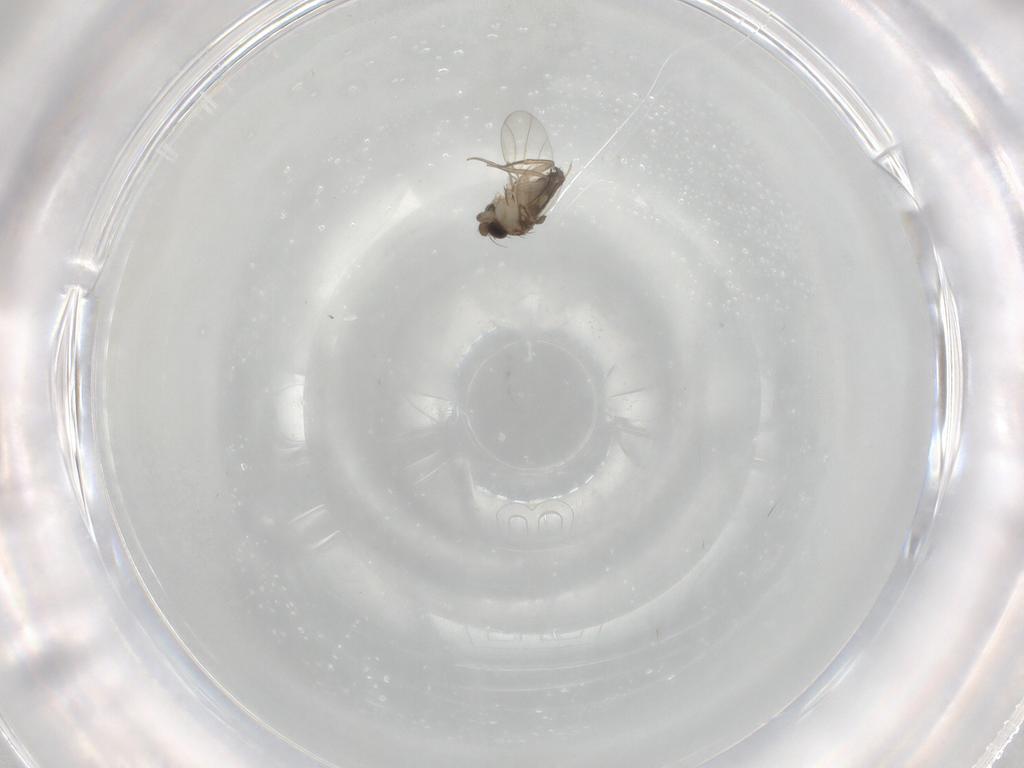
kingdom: Animalia
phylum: Arthropoda
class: Insecta
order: Diptera
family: Phoridae
